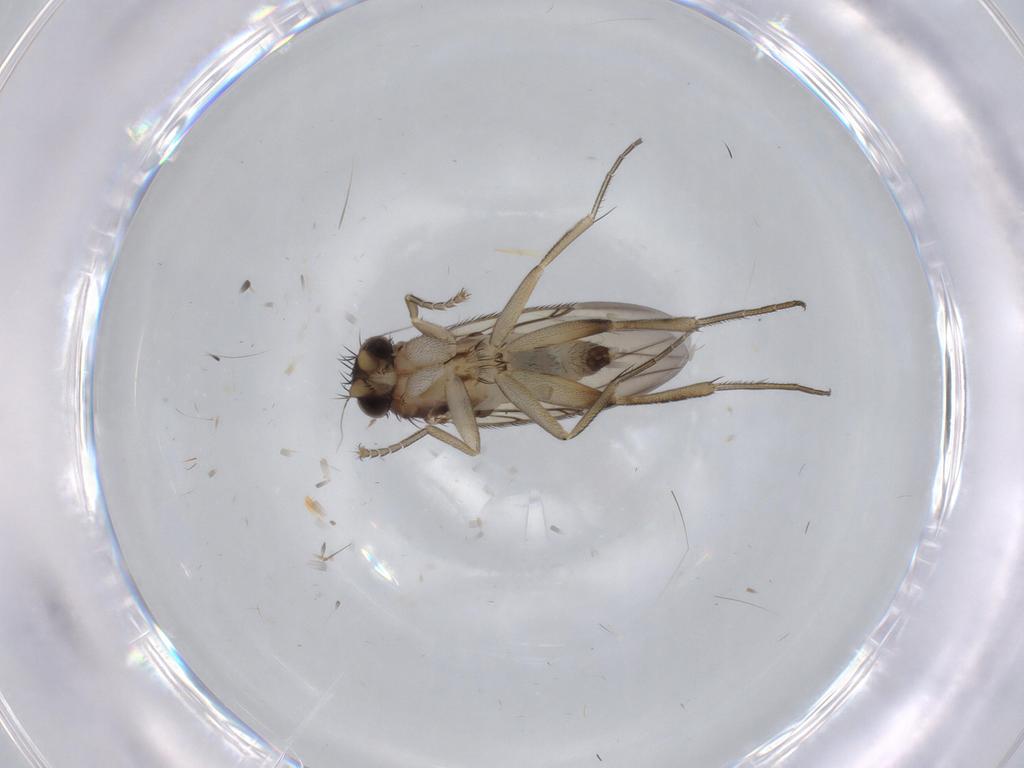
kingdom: Animalia
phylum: Arthropoda
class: Insecta
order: Diptera
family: Phoridae
